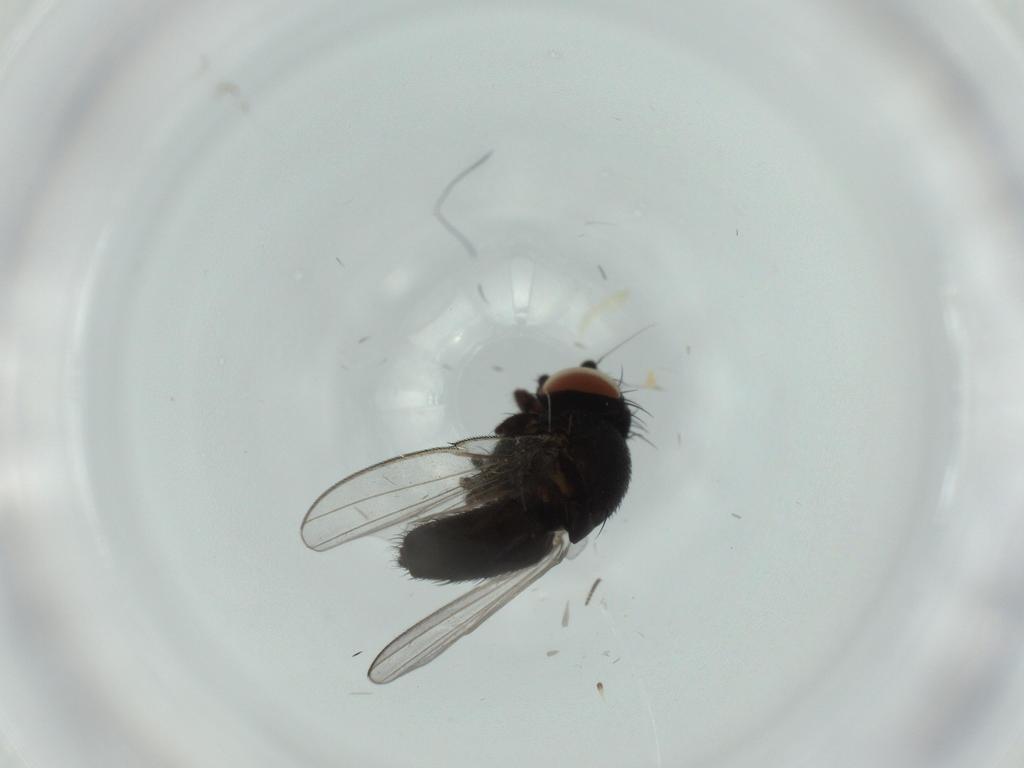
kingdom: Animalia
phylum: Arthropoda
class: Insecta
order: Diptera
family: Milichiidae
